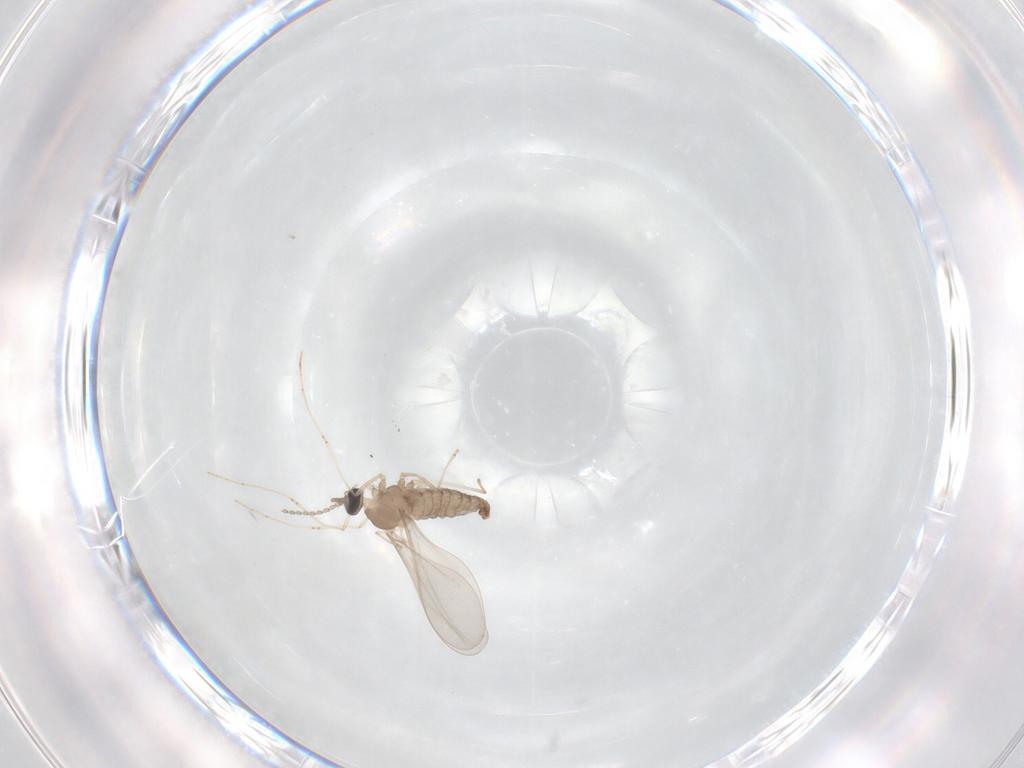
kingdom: Animalia
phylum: Arthropoda
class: Insecta
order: Diptera
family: Cecidomyiidae
